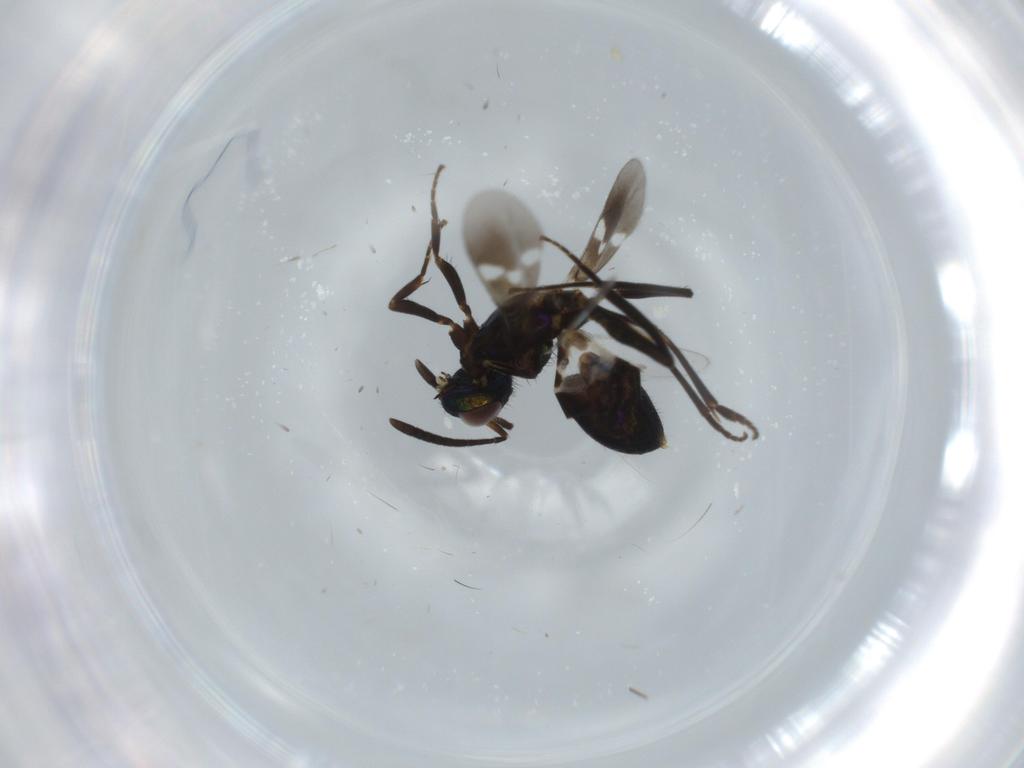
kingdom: Animalia
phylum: Arthropoda
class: Insecta
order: Hymenoptera
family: Eupelmidae
